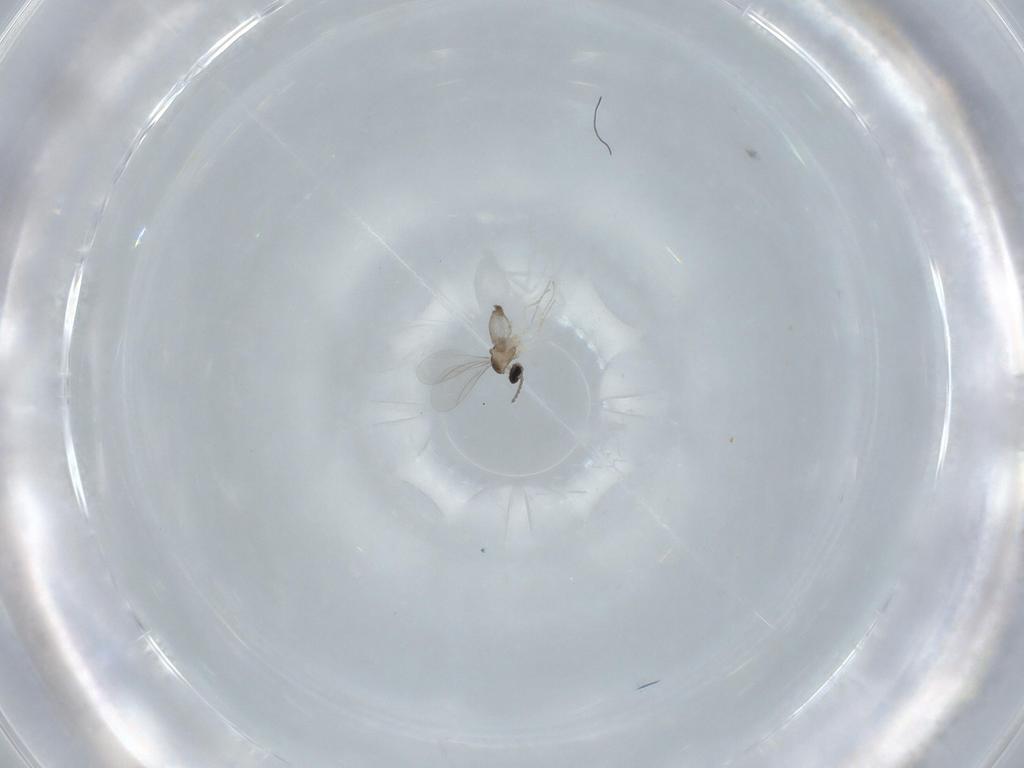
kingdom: Animalia
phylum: Arthropoda
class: Insecta
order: Diptera
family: Cecidomyiidae
